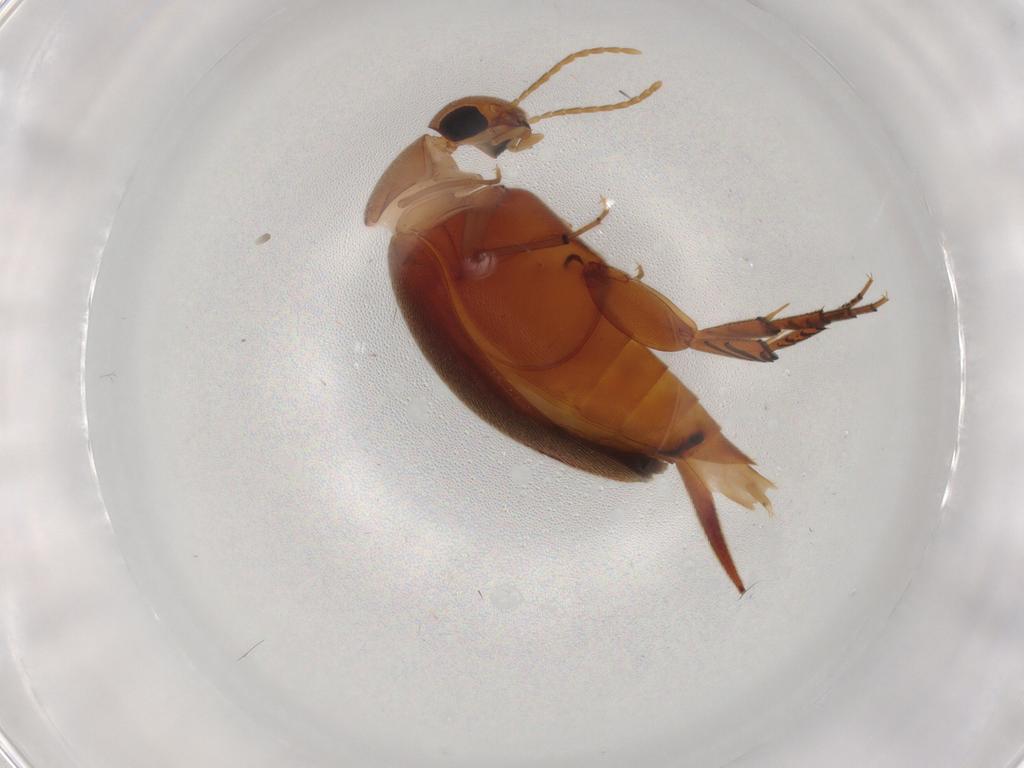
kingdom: Animalia
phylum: Arthropoda
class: Insecta
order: Coleoptera
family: Mordellidae
